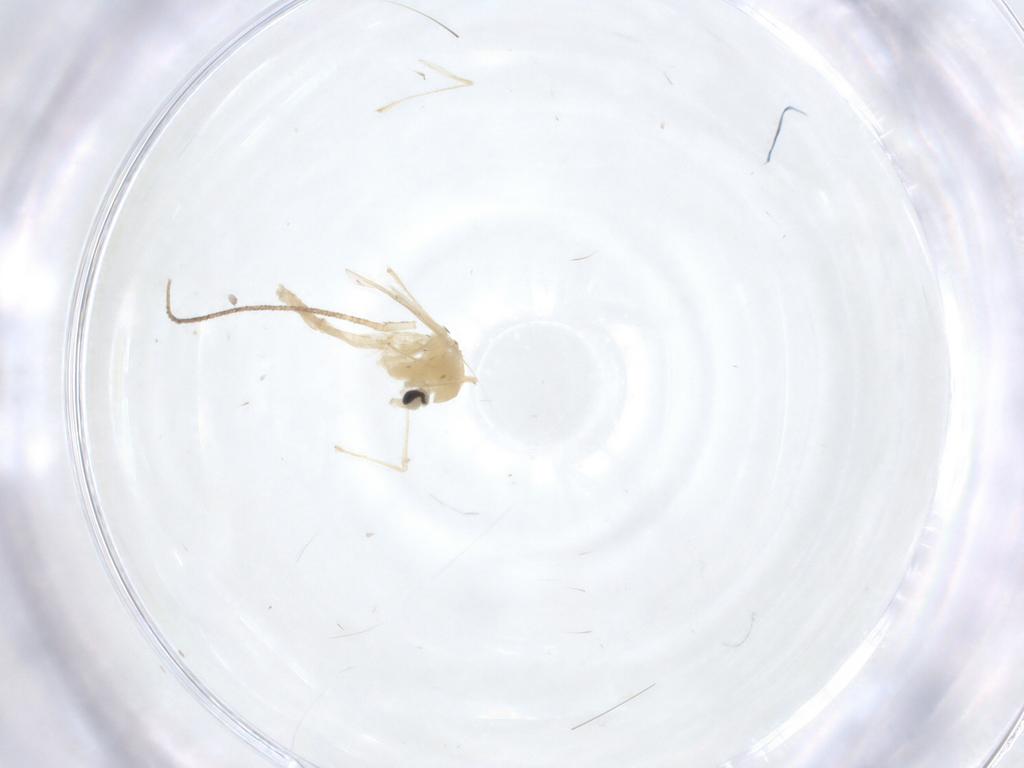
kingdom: Animalia
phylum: Arthropoda
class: Insecta
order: Diptera
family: Chironomidae
